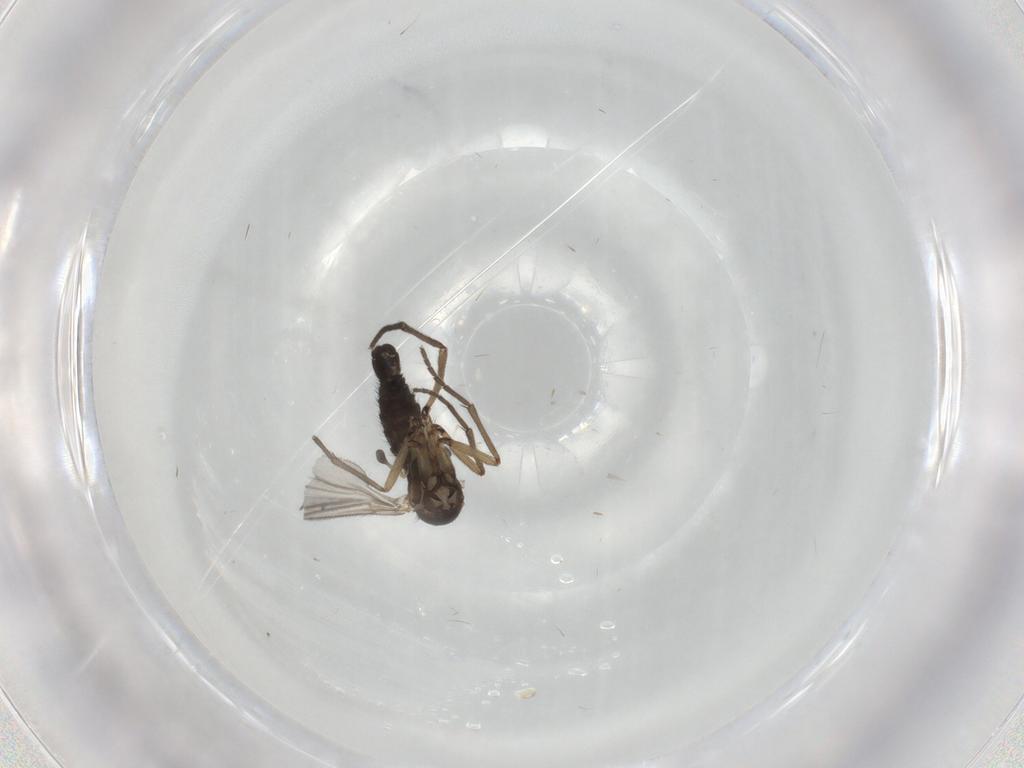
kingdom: Animalia
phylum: Arthropoda
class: Insecta
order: Diptera
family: Sciaridae
